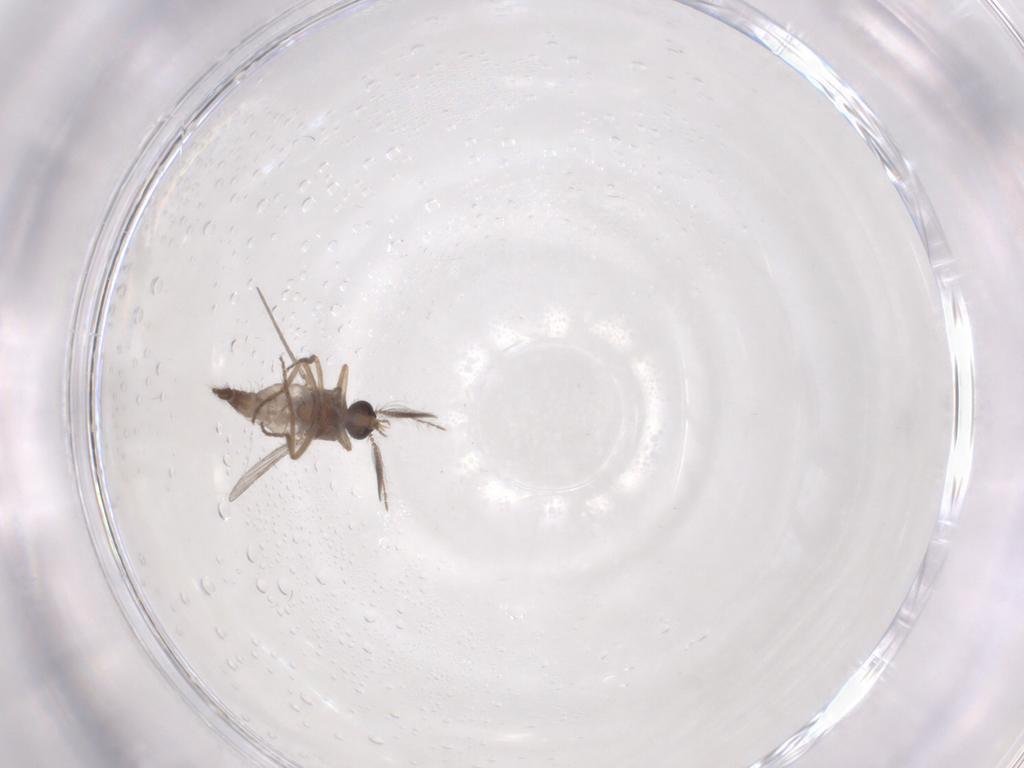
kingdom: Animalia
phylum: Arthropoda
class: Insecta
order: Diptera
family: Ceratopogonidae
